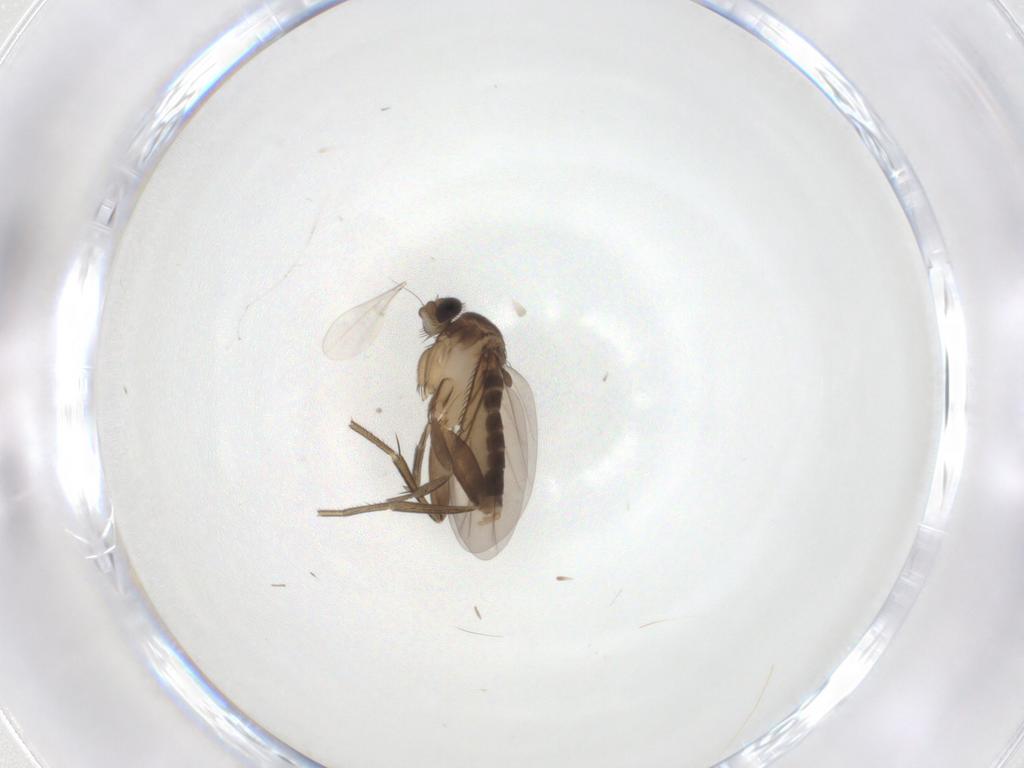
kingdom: Animalia
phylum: Arthropoda
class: Insecta
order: Diptera
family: Phoridae
